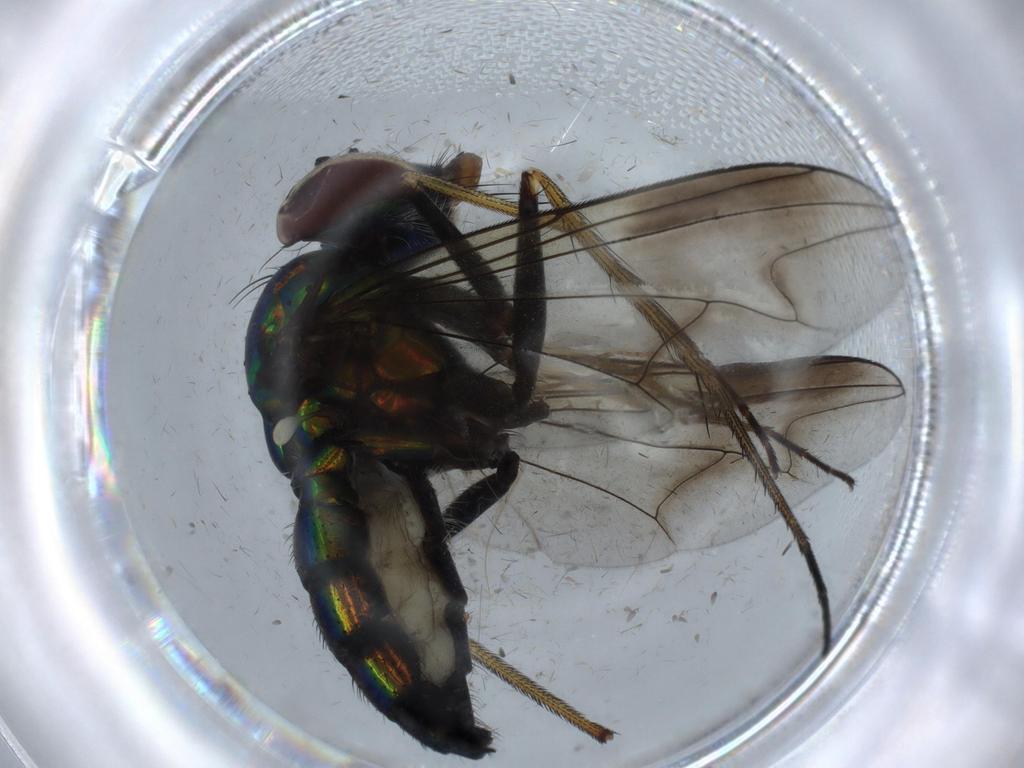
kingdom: Animalia
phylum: Arthropoda
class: Insecta
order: Diptera
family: Dolichopodidae
